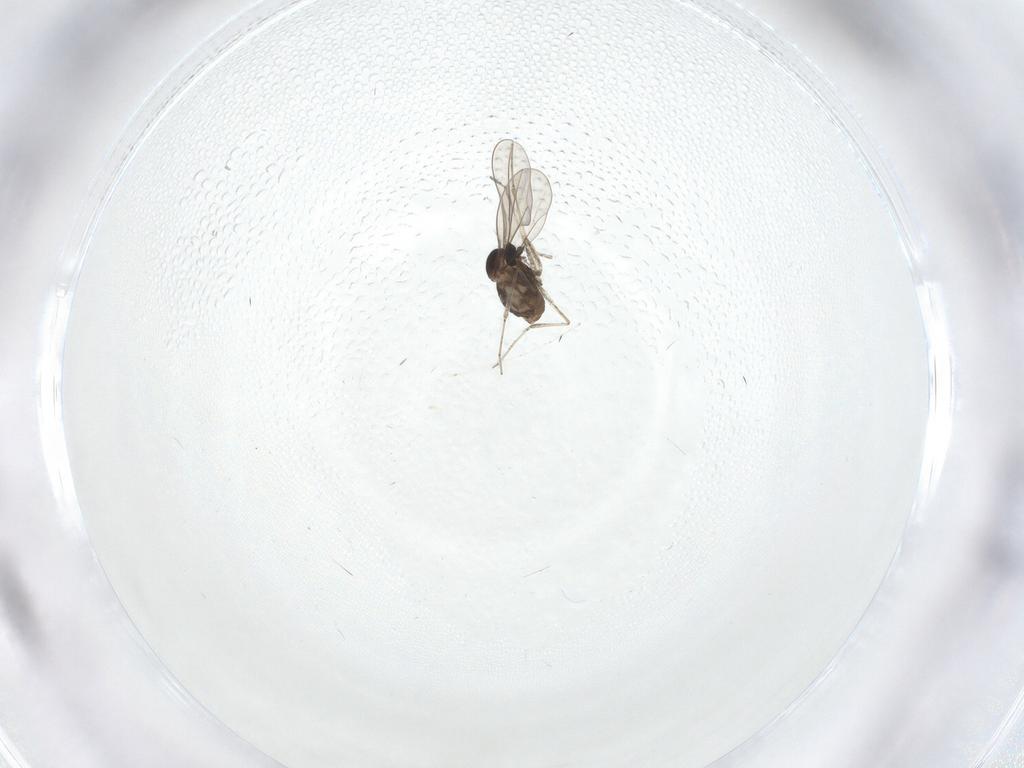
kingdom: Animalia
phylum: Arthropoda
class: Insecta
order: Diptera
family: Cecidomyiidae
